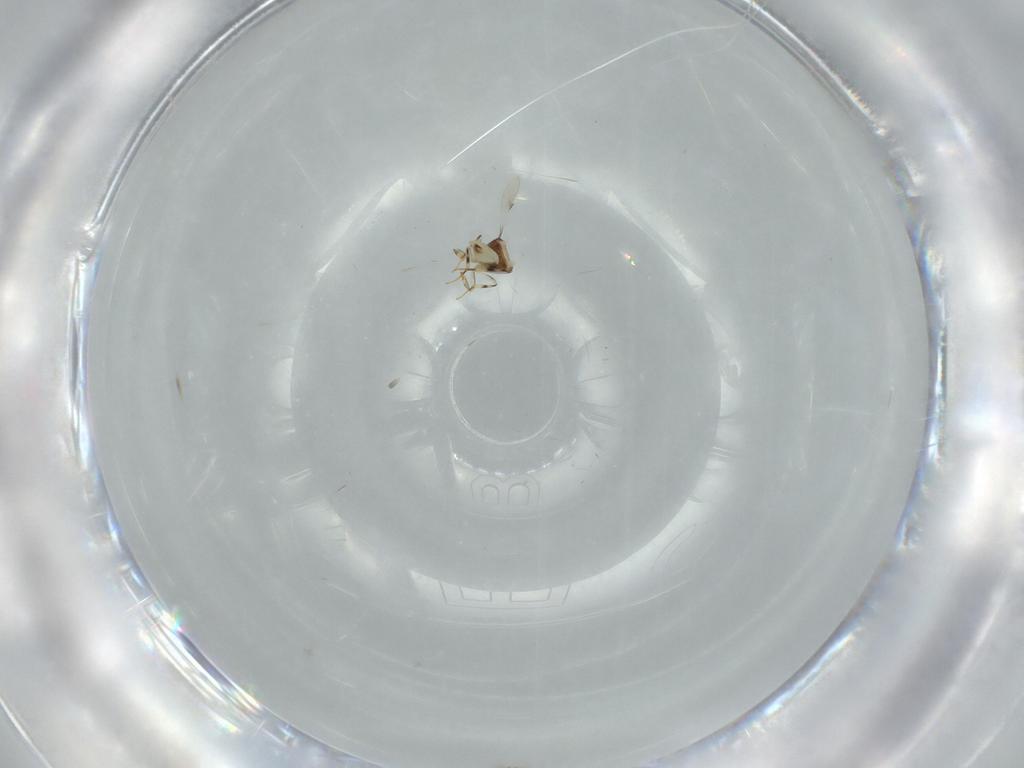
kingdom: Animalia
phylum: Arthropoda
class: Insecta
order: Hymenoptera
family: Scelionidae
